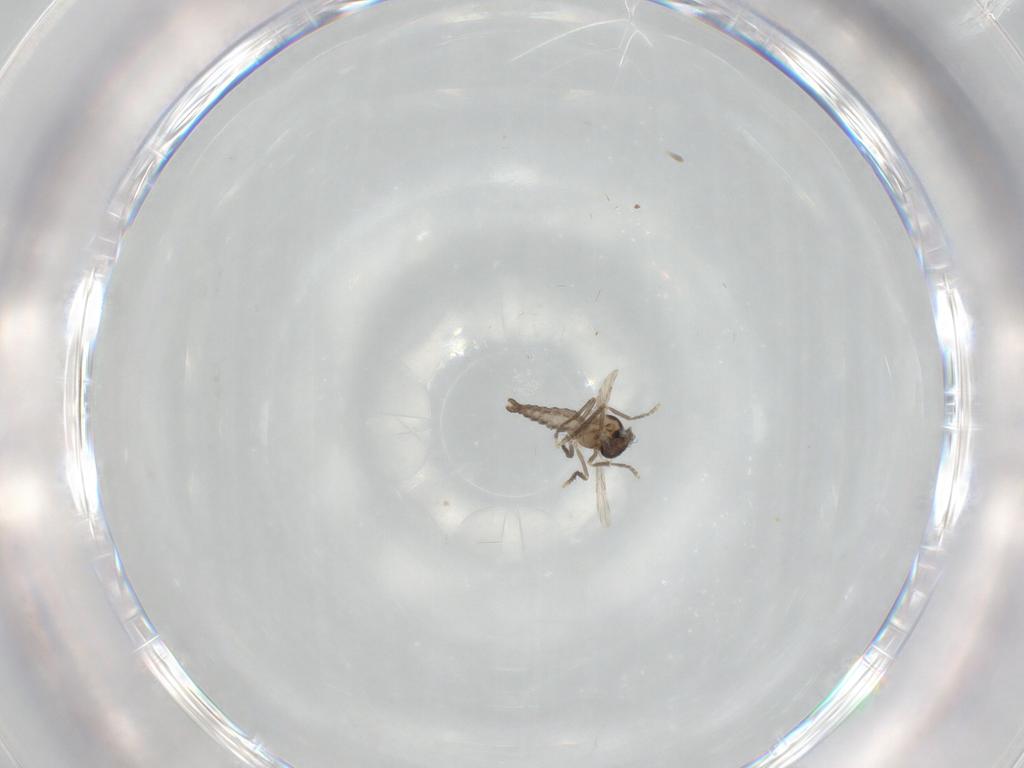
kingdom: Animalia
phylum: Arthropoda
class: Insecta
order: Diptera
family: Ceratopogonidae
